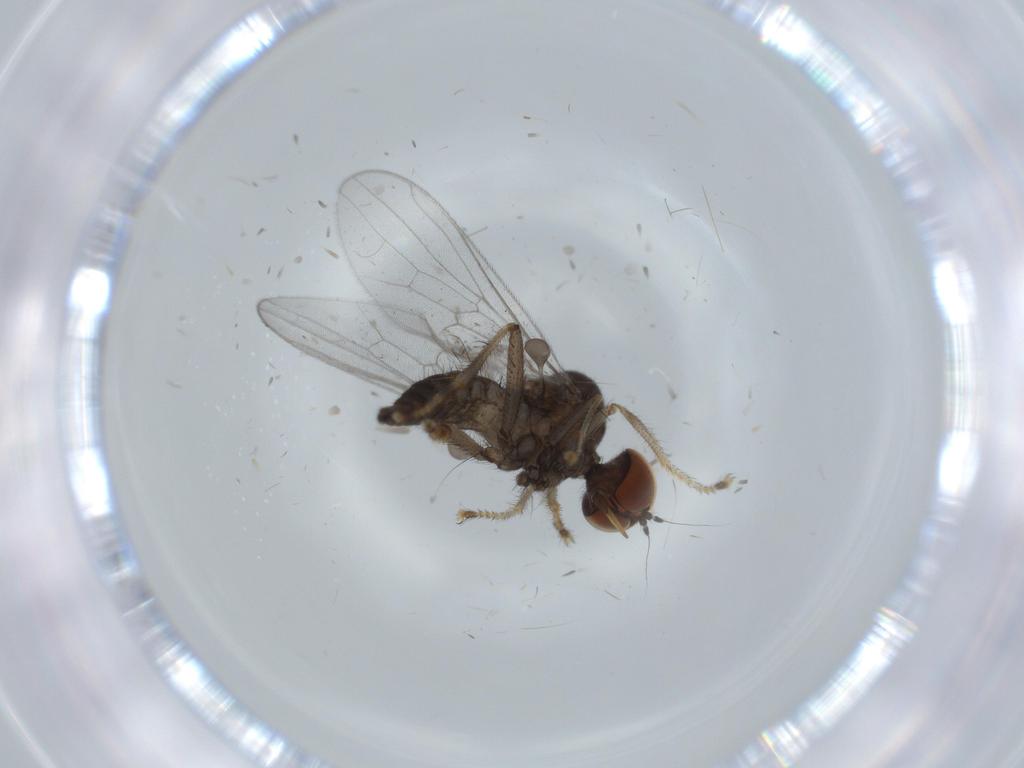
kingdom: Animalia
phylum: Arthropoda
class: Insecta
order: Diptera
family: Hybotidae
